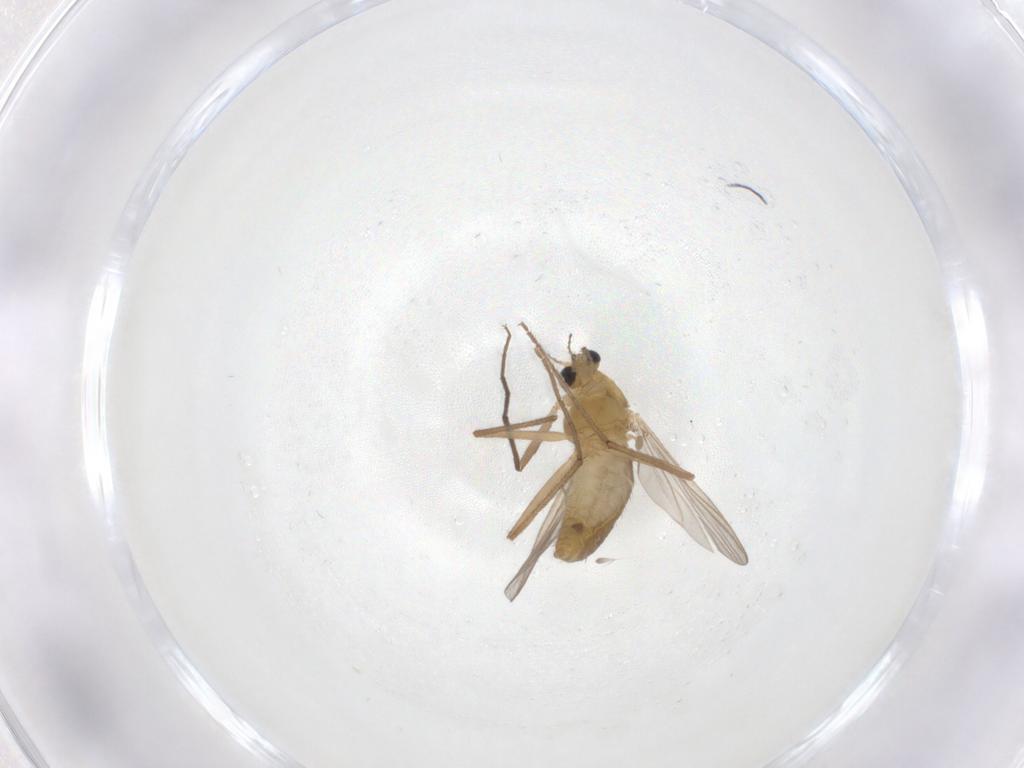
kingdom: Animalia
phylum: Arthropoda
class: Insecta
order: Diptera
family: Chironomidae
